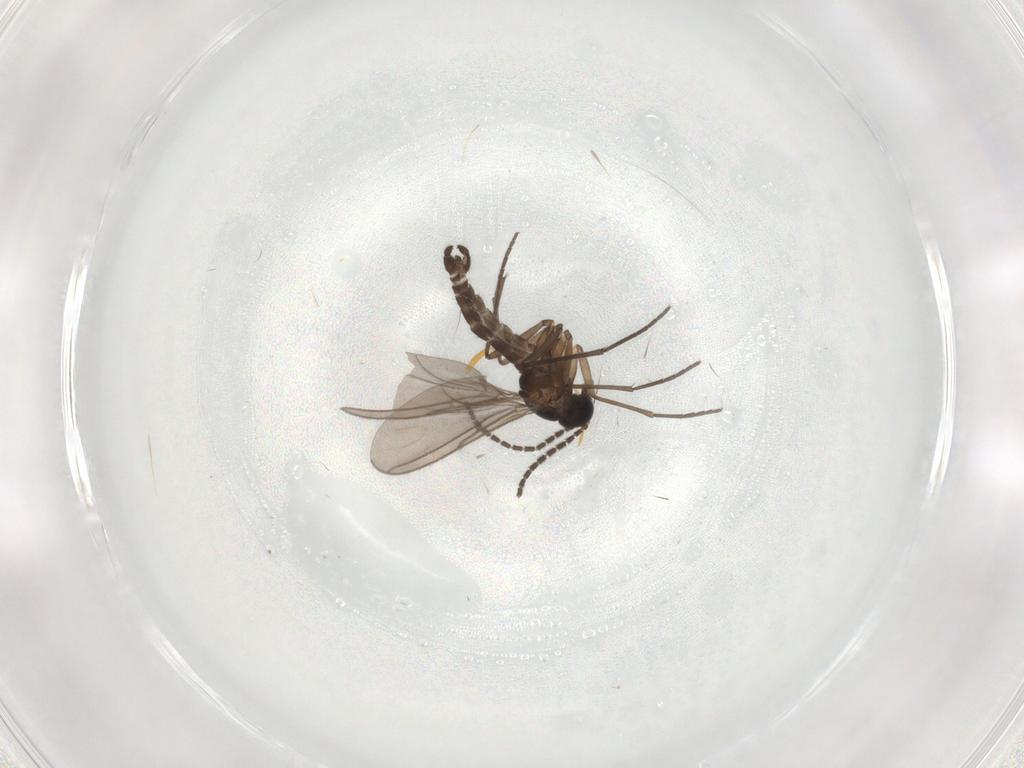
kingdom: Animalia
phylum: Arthropoda
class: Insecta
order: Diptera
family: Sciaridae
